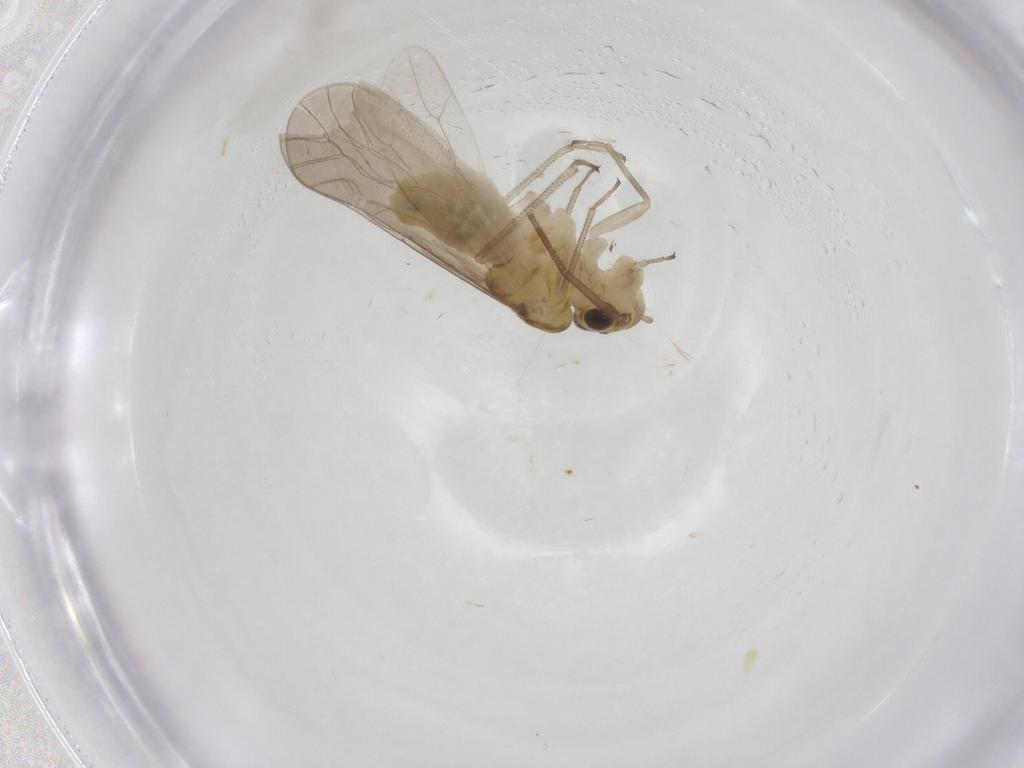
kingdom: Animalia
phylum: Arthropoda
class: Insecta
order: Psocodea
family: Caeciliusidae
